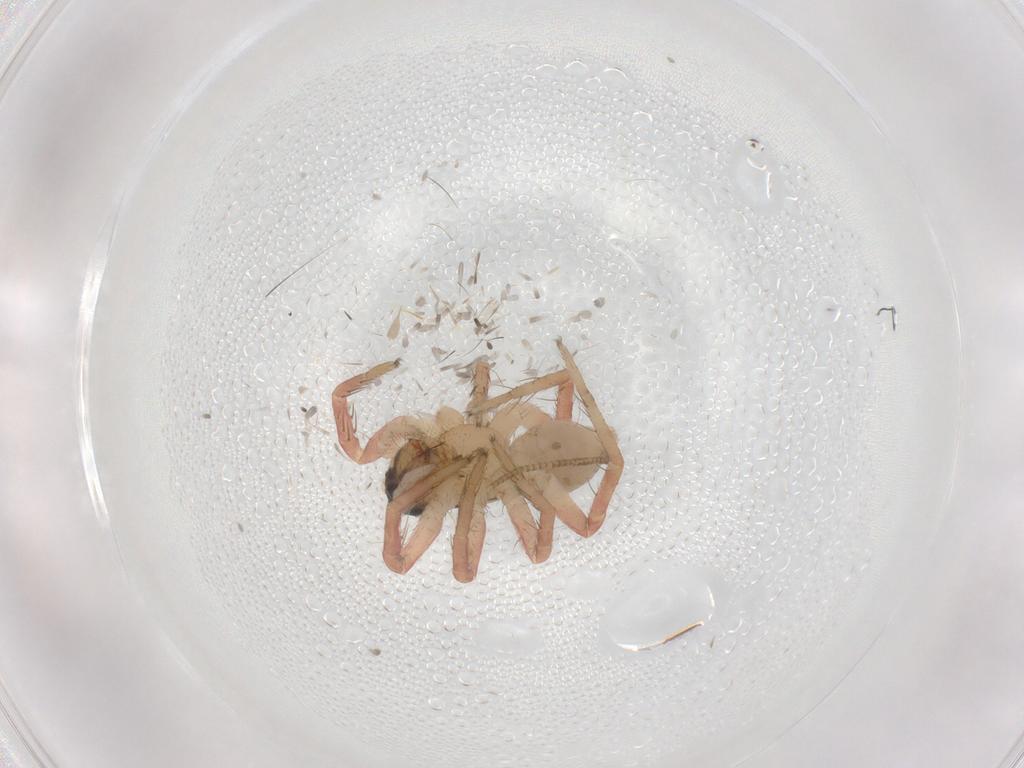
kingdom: Animalia
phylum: Arthropoda
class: Arachnida
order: Araneae
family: Lycosidae
